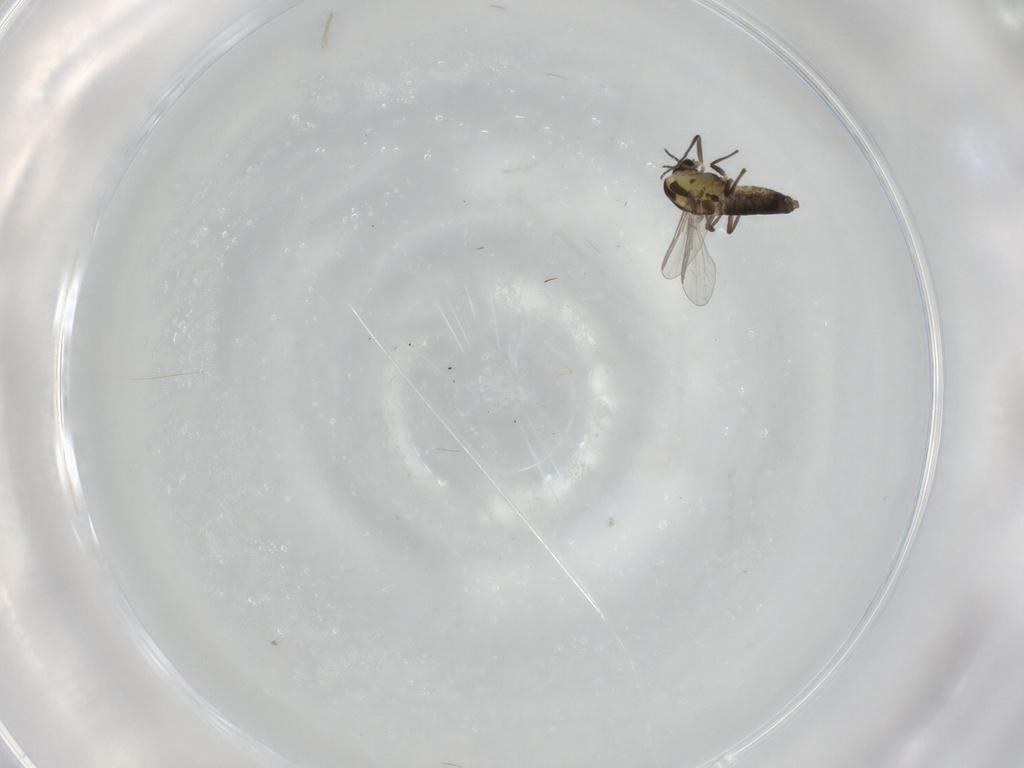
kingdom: Animalia
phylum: Arthropoda
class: Insecta
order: Diptera
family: Chironomidae
